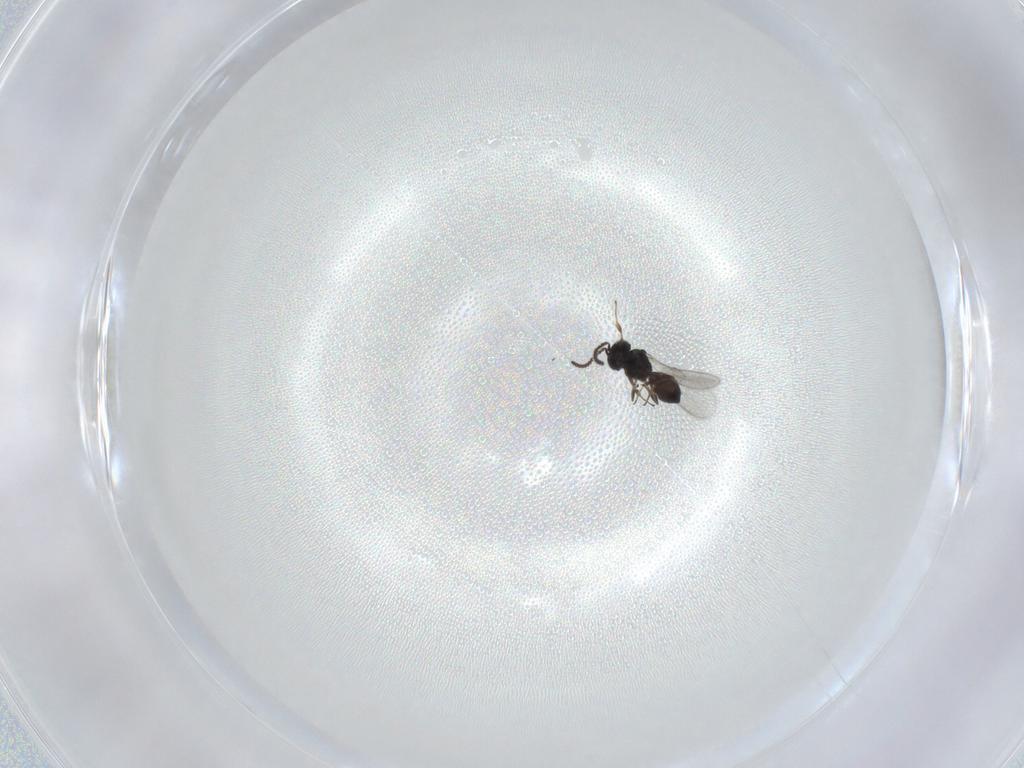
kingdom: Animalia
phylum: Arthropoda
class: Insecta
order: Hymenoptera
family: Scelionidae
